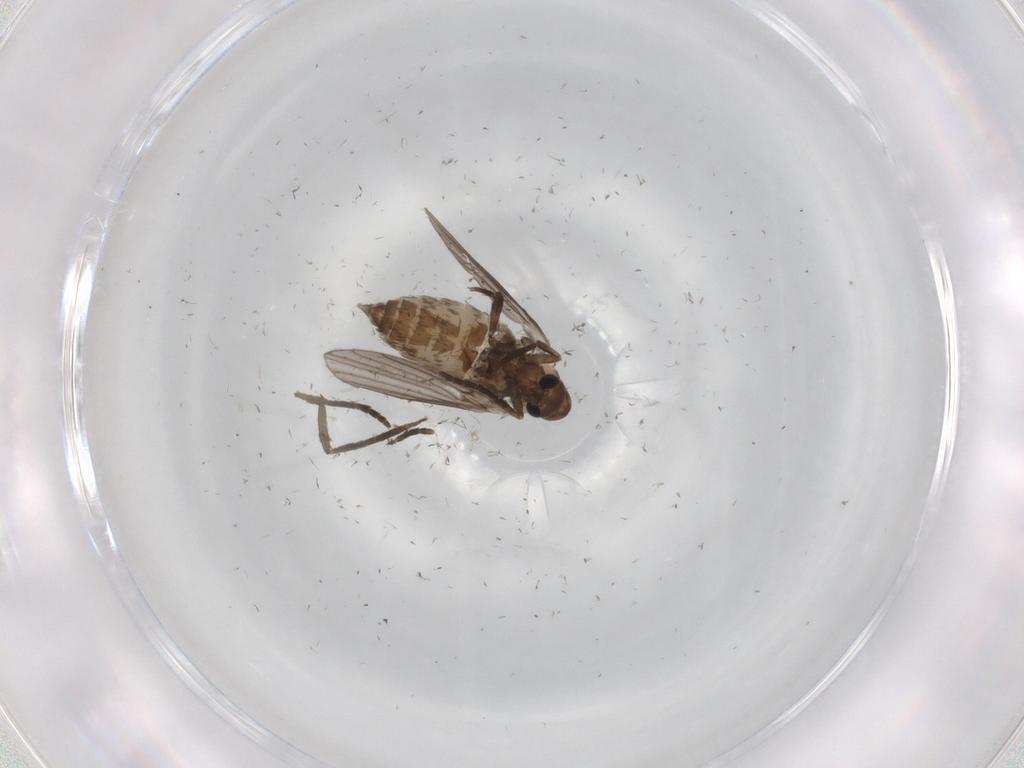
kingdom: Animalia
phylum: Arthropoda
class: Insecta
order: Diptera
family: Psychodidae
